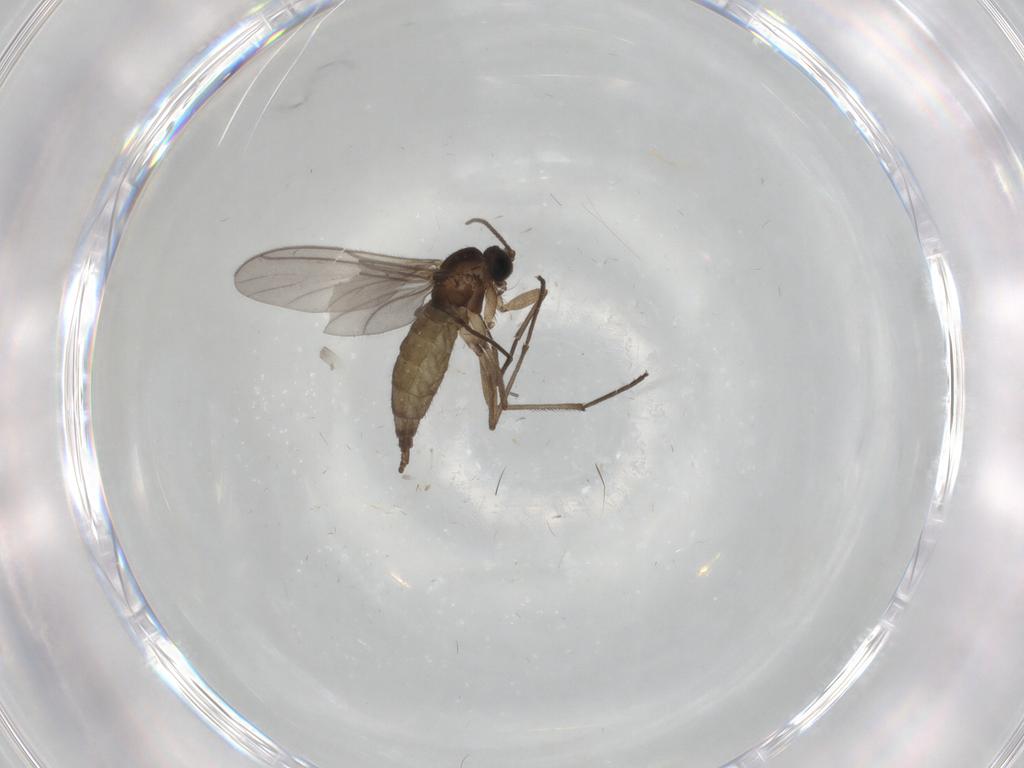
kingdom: Animalia
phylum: Arthropoda
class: Insecta
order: Diptera
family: Sciaridae
